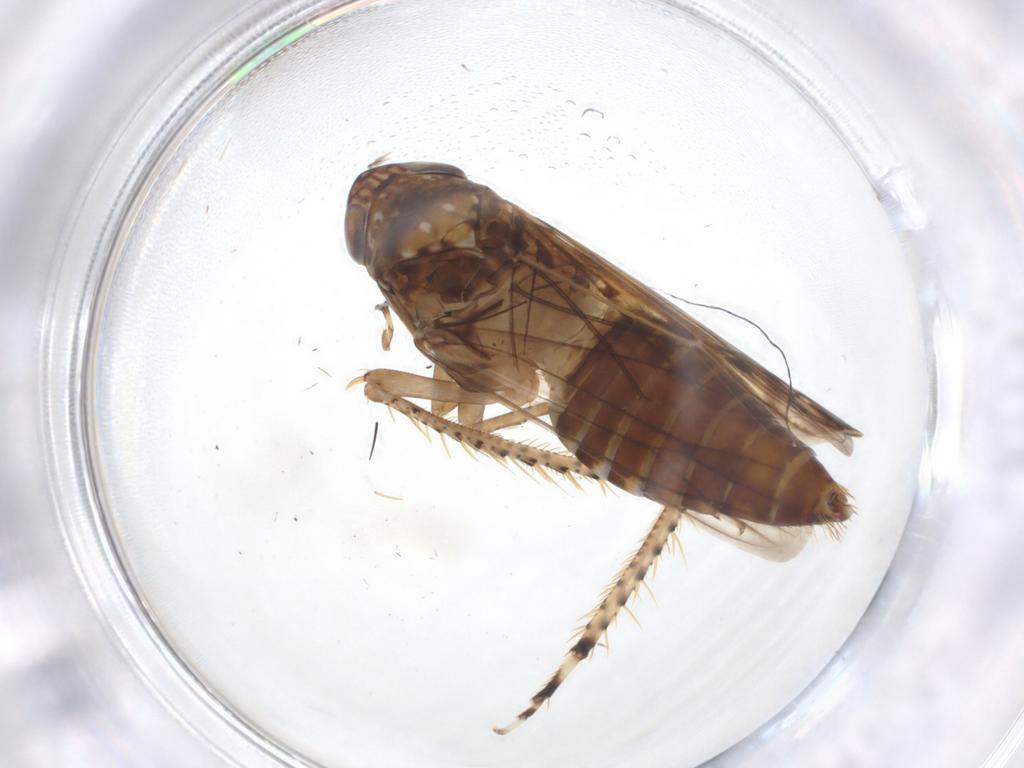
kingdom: Animalia
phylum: Arthropoda
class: Insecta
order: Hemiptera
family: Cicadellidae
